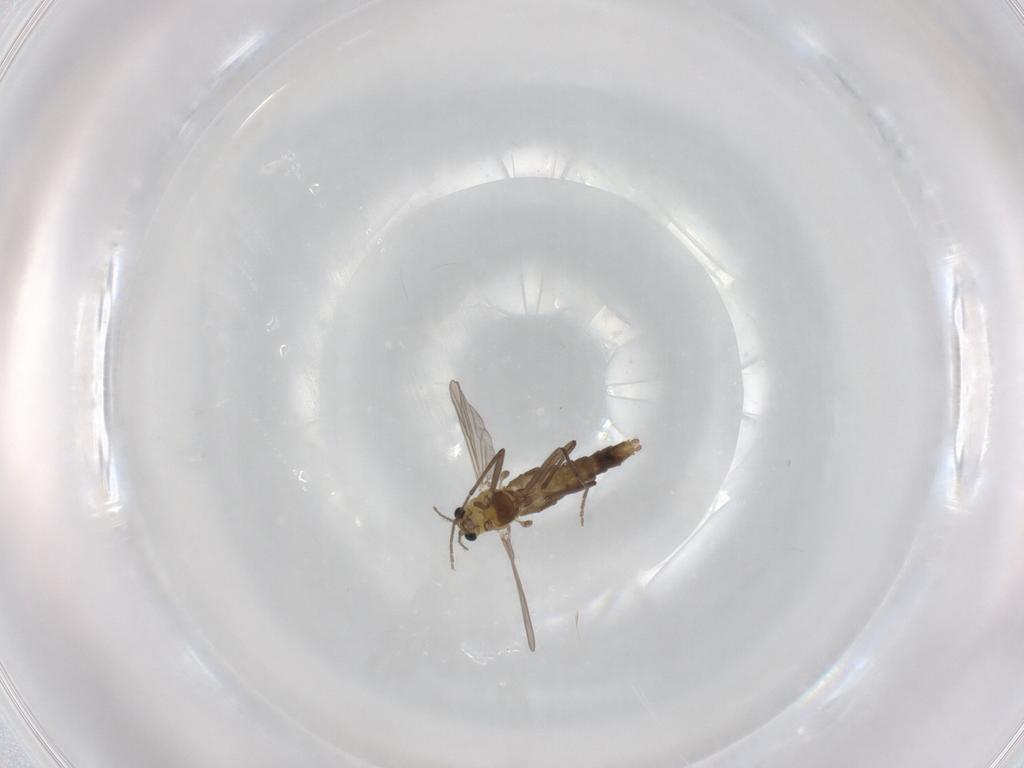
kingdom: Animalia
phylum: Arthropoda
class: Insecta
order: Diptera
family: Chironomidae
